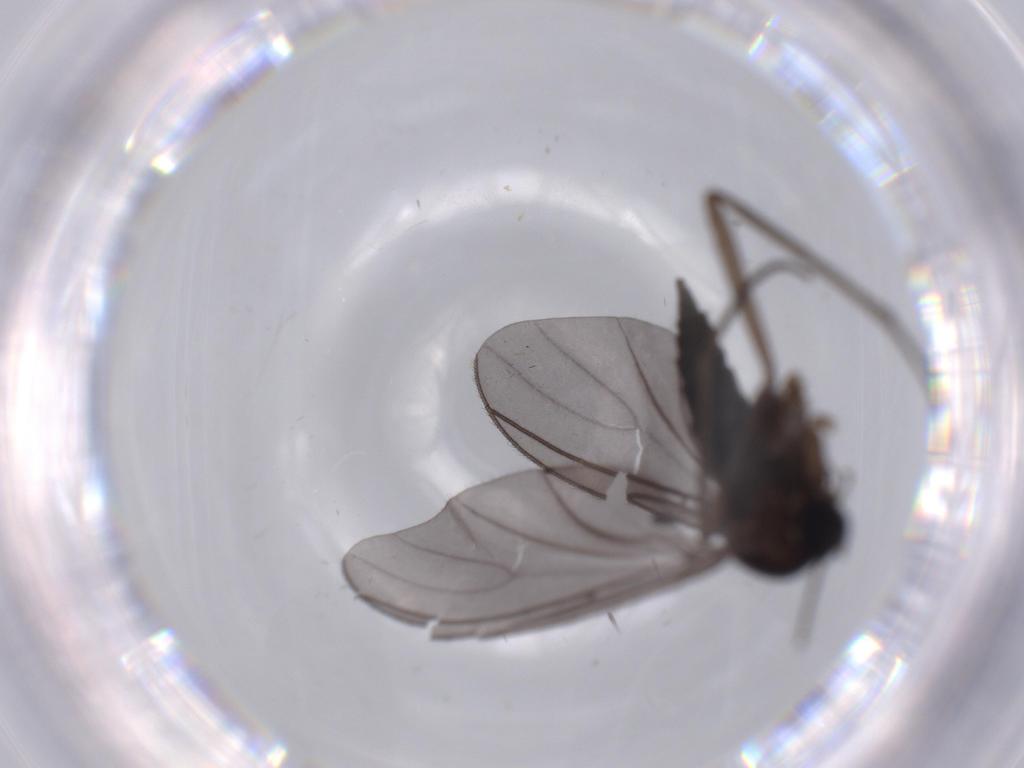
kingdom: Animalia
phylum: Arthropoda
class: Insecta
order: Diptera
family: Sciaridae
